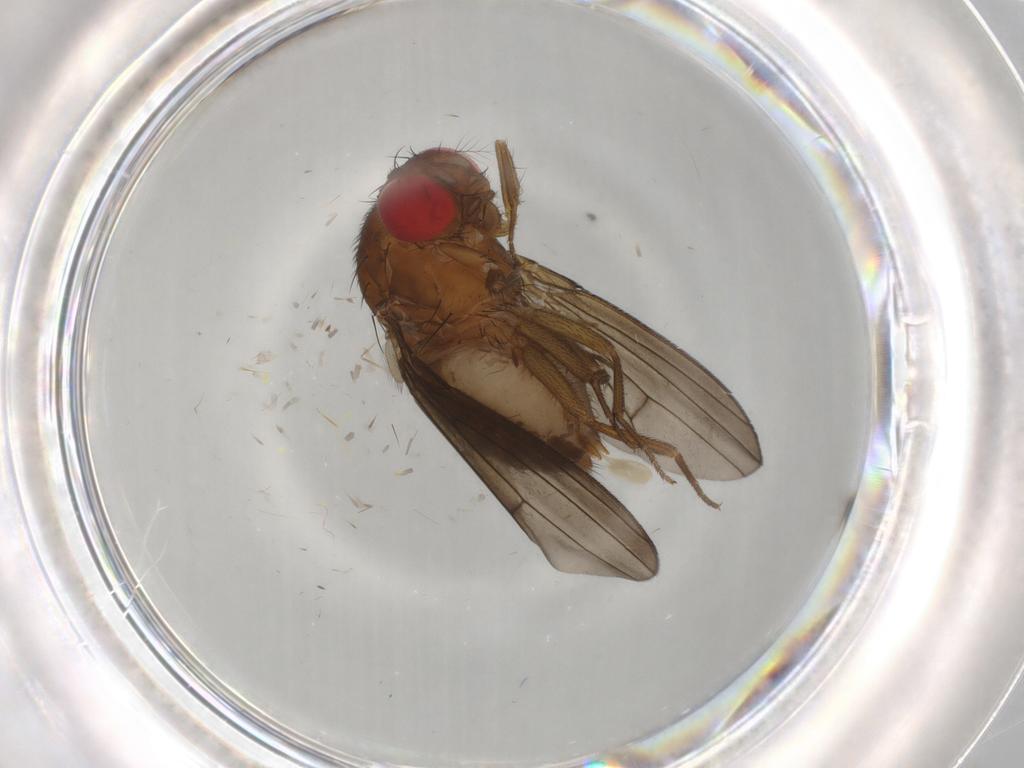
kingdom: Animalia
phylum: Arthropoda
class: Insecta
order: Diptera
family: Drosophilidae
